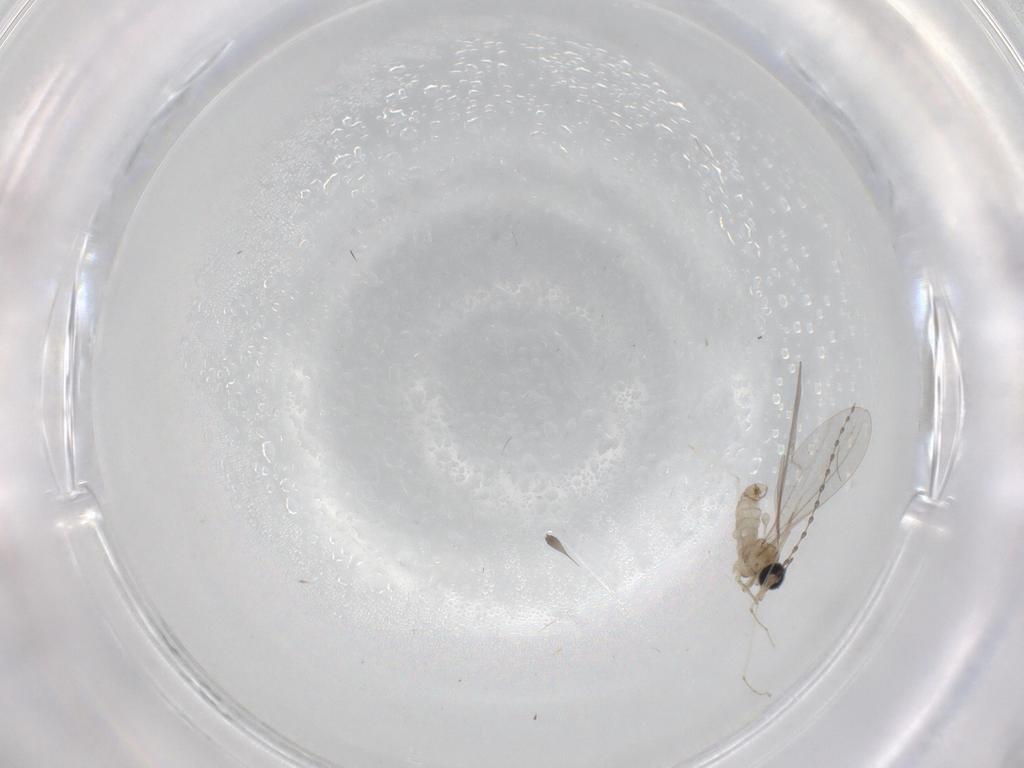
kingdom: Animalia
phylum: Arthropoda
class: Insecta
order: Diptera
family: Cecidomyiidae
